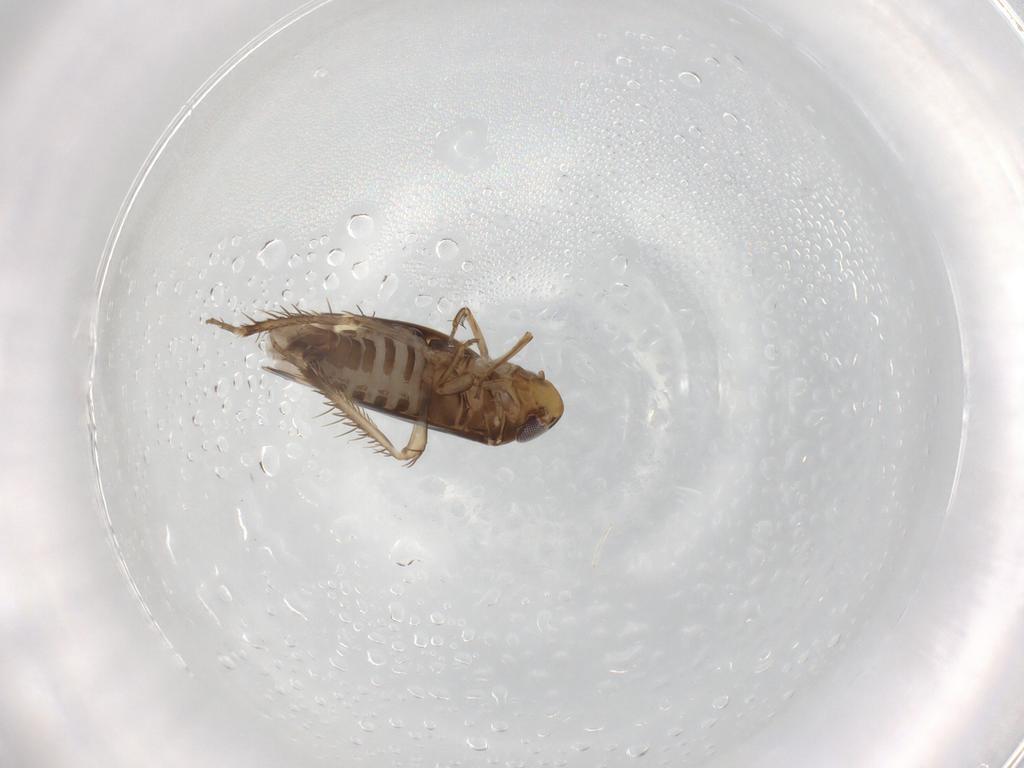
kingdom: Animalia
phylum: Arthropoda
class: Insecta
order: Hemiptera
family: Cicadellidae
